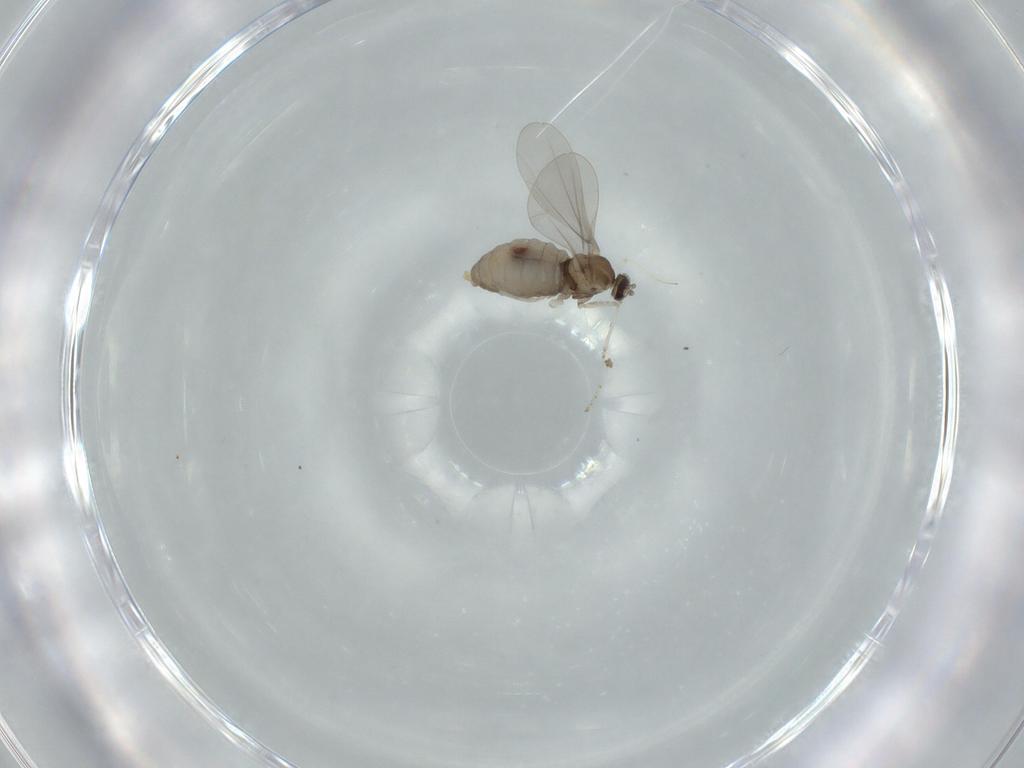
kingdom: Animalia
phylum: Arthropoda
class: Insecta
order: Diptera
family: Cecidomyiidae
